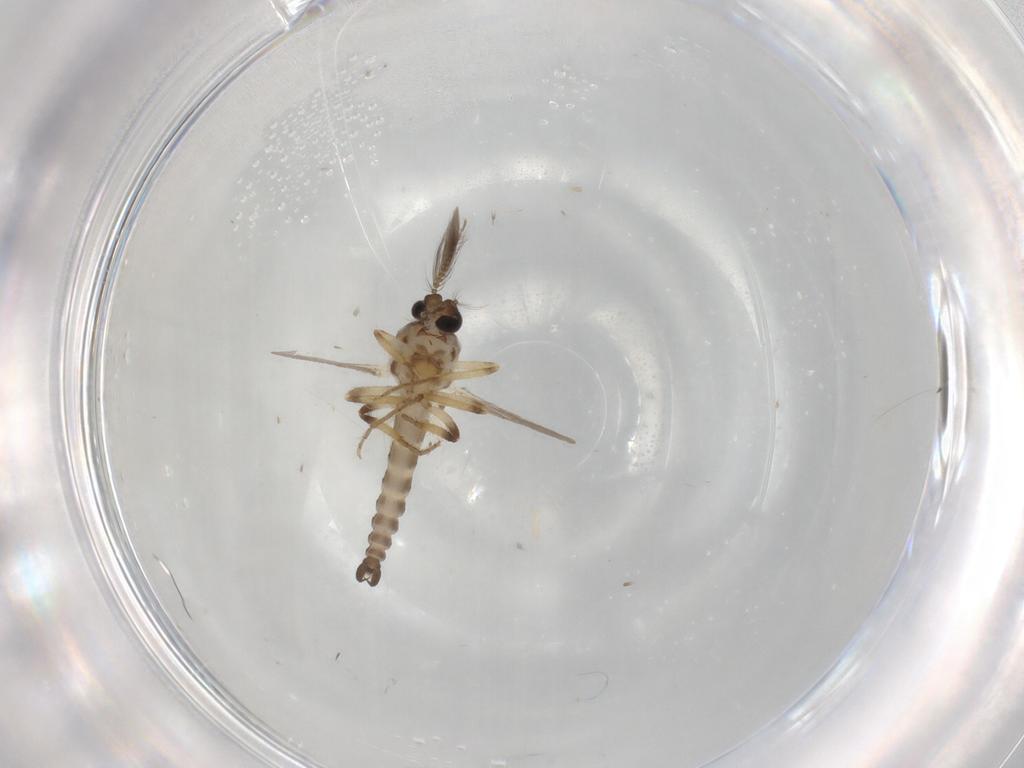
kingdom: Animalia
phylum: Arthropoda
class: Insecta
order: Diptera
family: Ceratopogonidae
